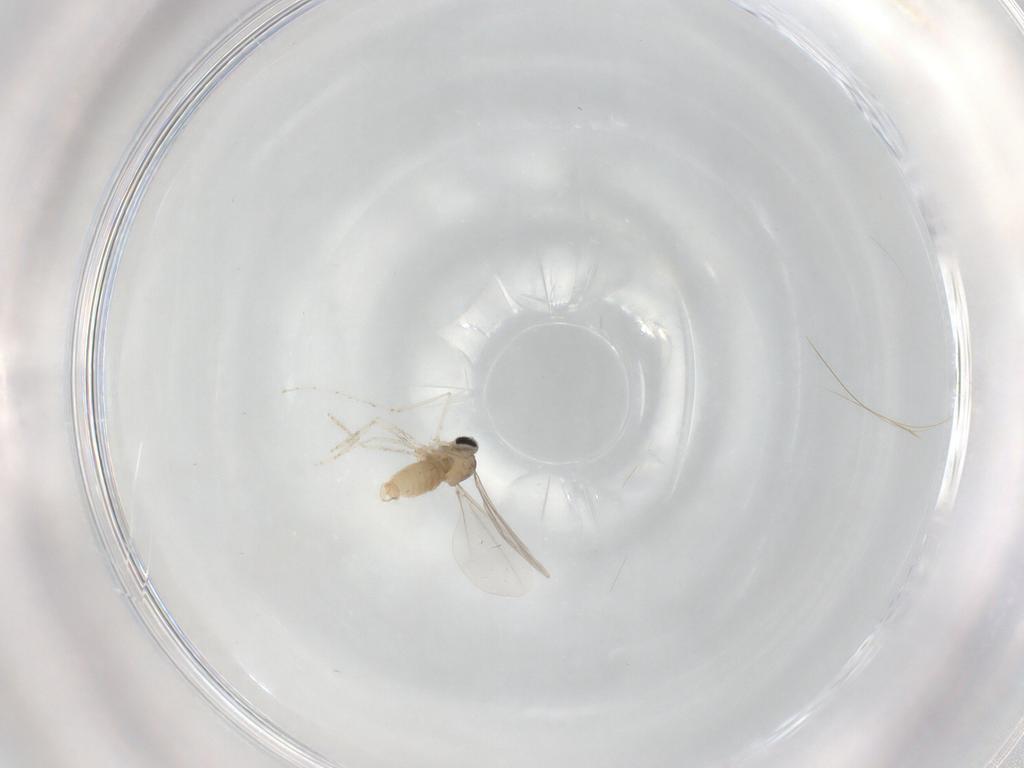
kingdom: Animalia
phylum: Arthropoda
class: Insecta
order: Diptera
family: Cecidomyiidae
